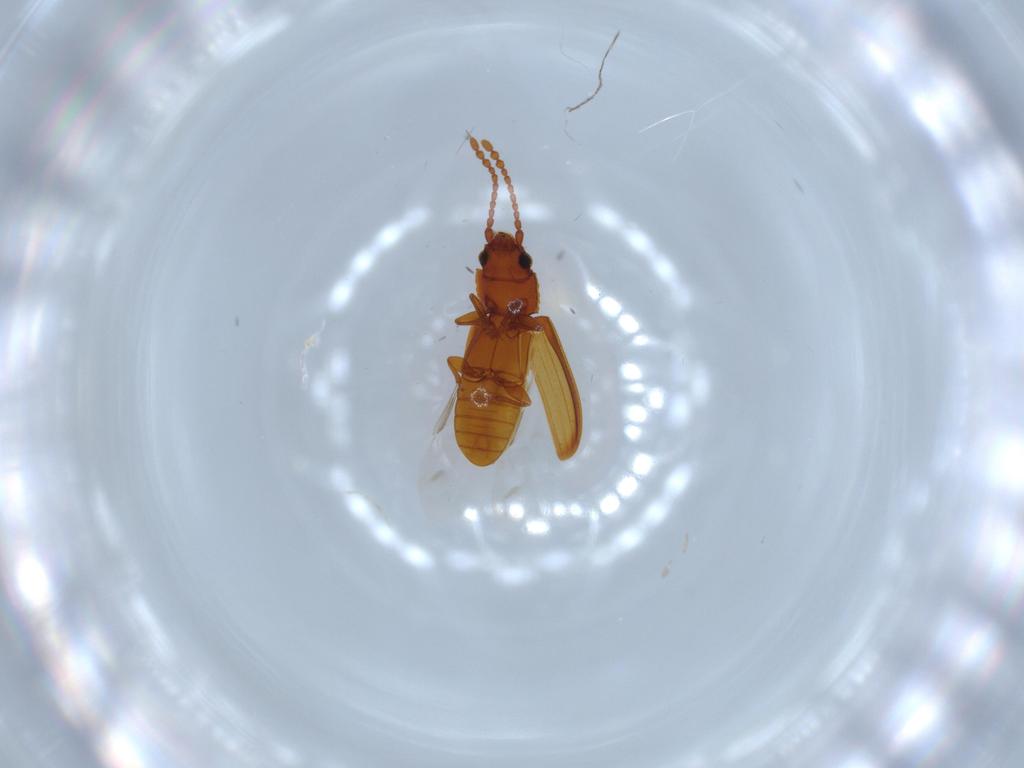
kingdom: Animalia
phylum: Arthropoda
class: Insecta
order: Coleoptera
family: Laemophloeidae
